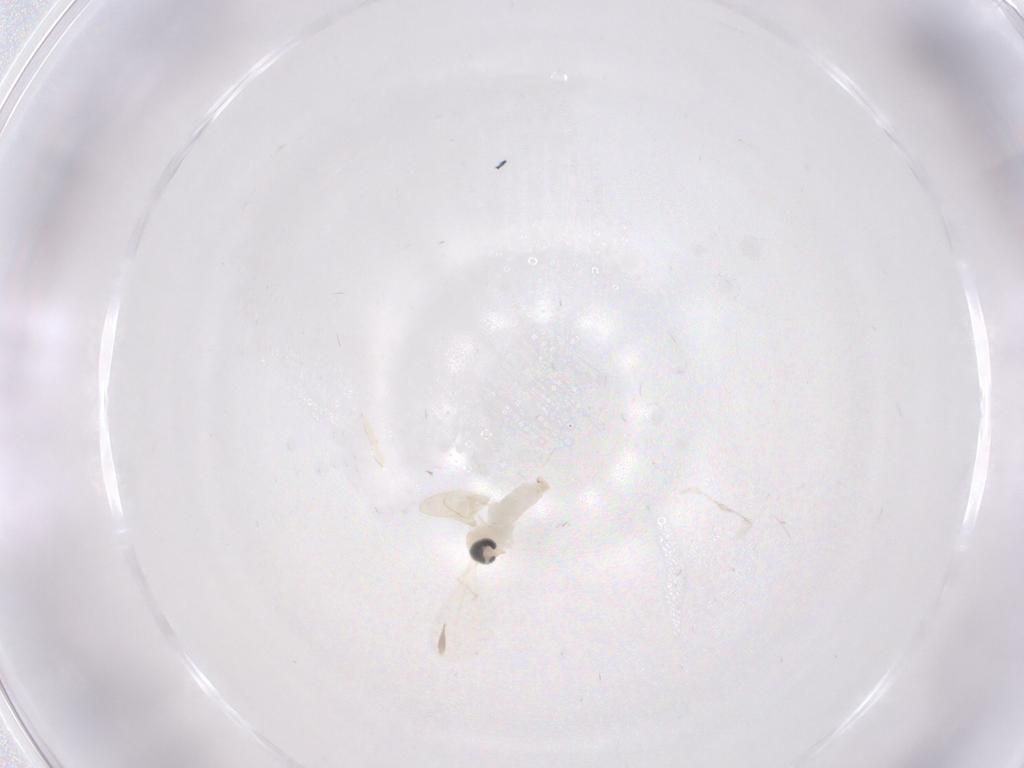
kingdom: Animalia
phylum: Arthropoda
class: Insecta
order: Diptera
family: Cecidomyiidae
